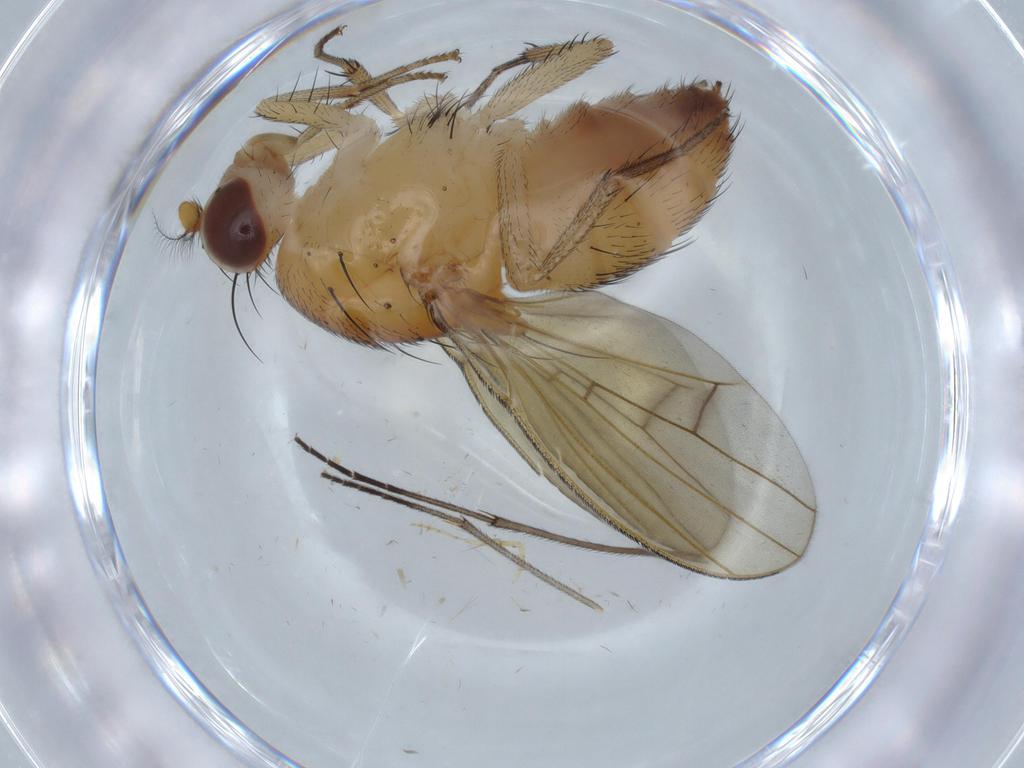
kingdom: Animalia
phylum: Arthropoda
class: Insecta
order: Diptera
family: Lauxaniidae
